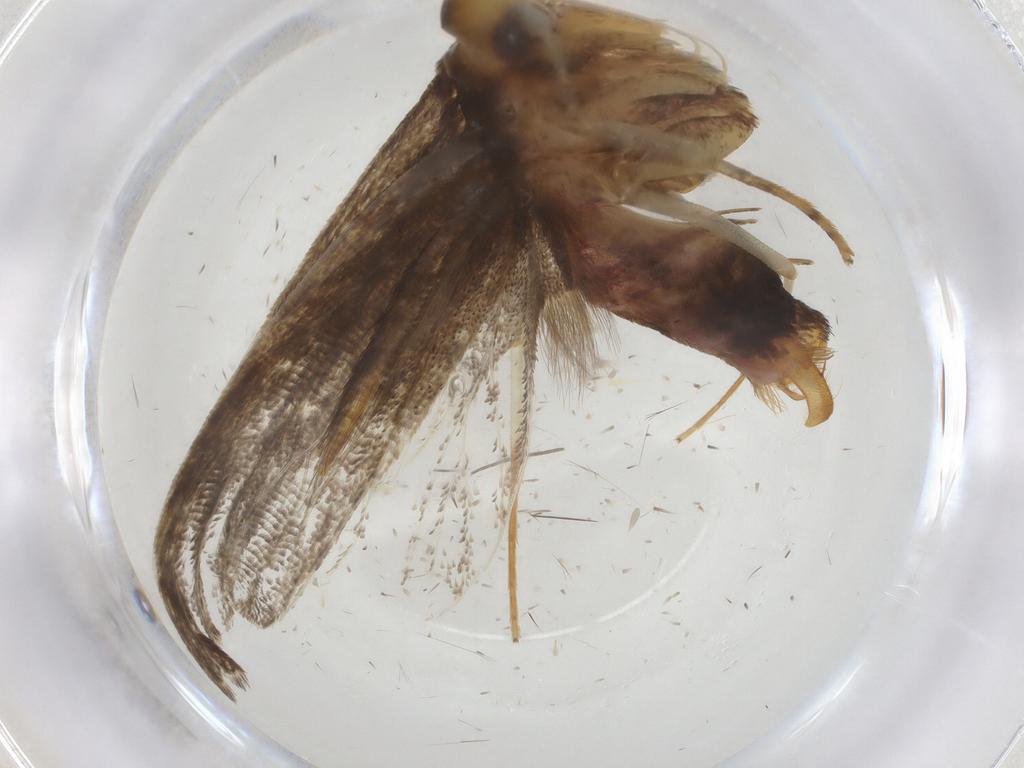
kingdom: Animalia
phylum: Arthropoda
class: Insecta
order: Lepidoptera
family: Lecithoceridae
